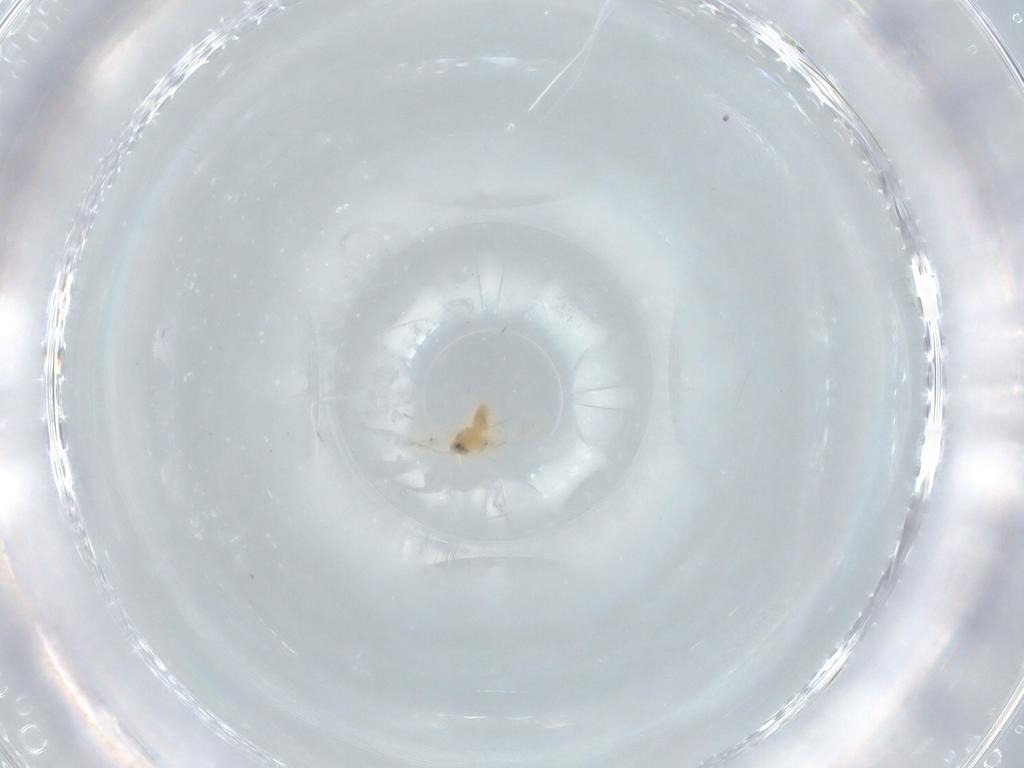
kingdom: Animalia
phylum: Arthropoda
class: Insecta
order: Hemiptera
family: Aleyrodidae
